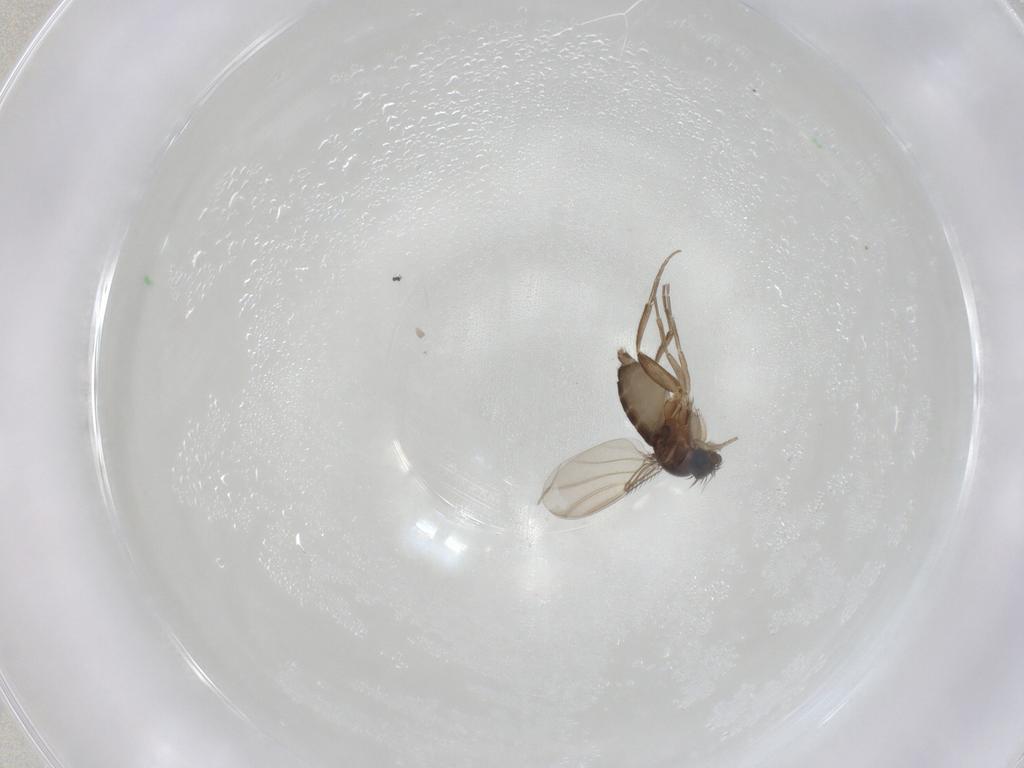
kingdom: Animalia
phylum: Arthropoda
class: Insecta
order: Diptera
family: Phoridae
